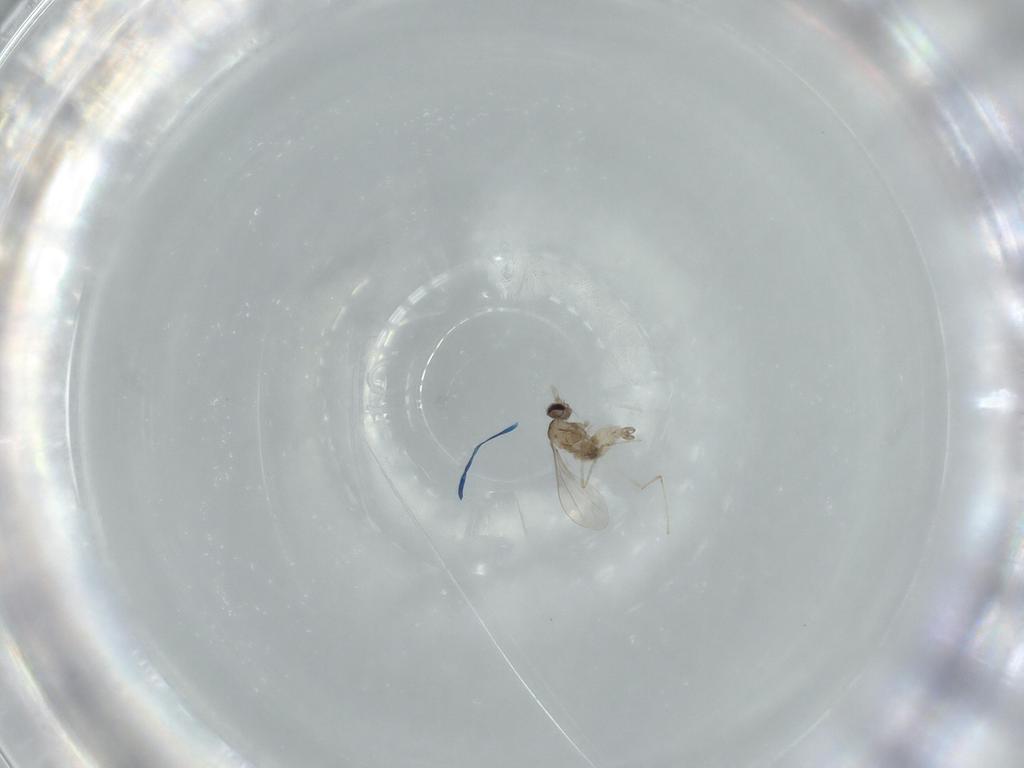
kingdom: Animalia
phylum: Arthropoda
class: Insecta
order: Diptera
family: Cecidomyiidae
